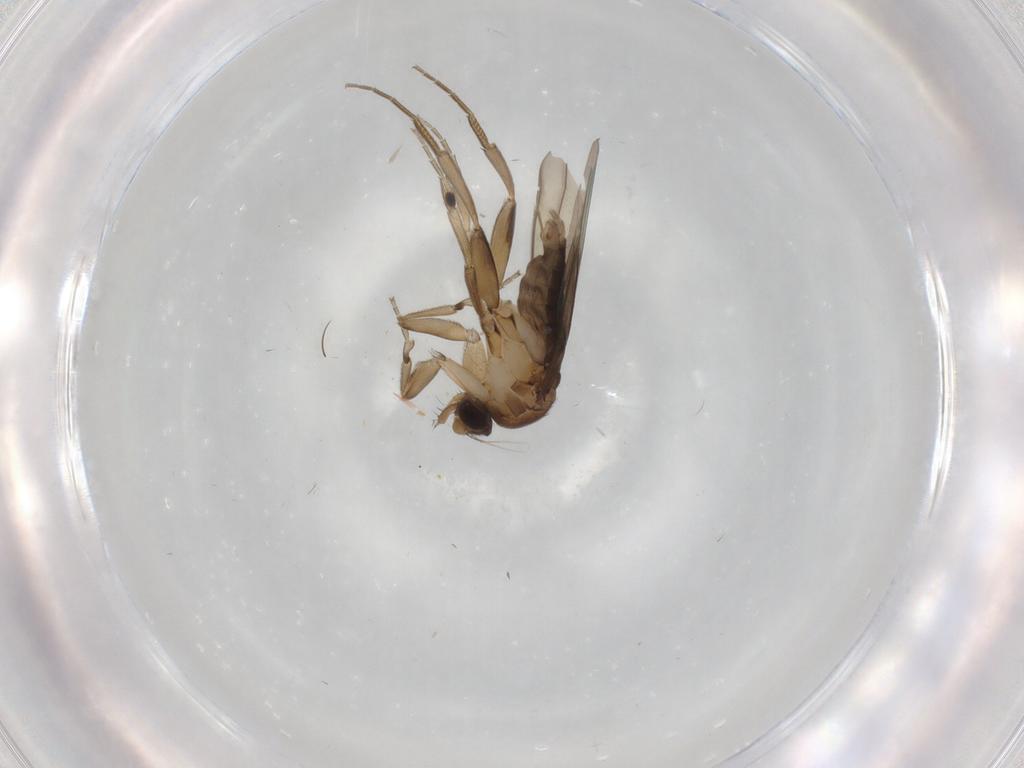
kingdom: Animalia
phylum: Arthropoda
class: Insecta
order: Diptera
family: Phoridae
